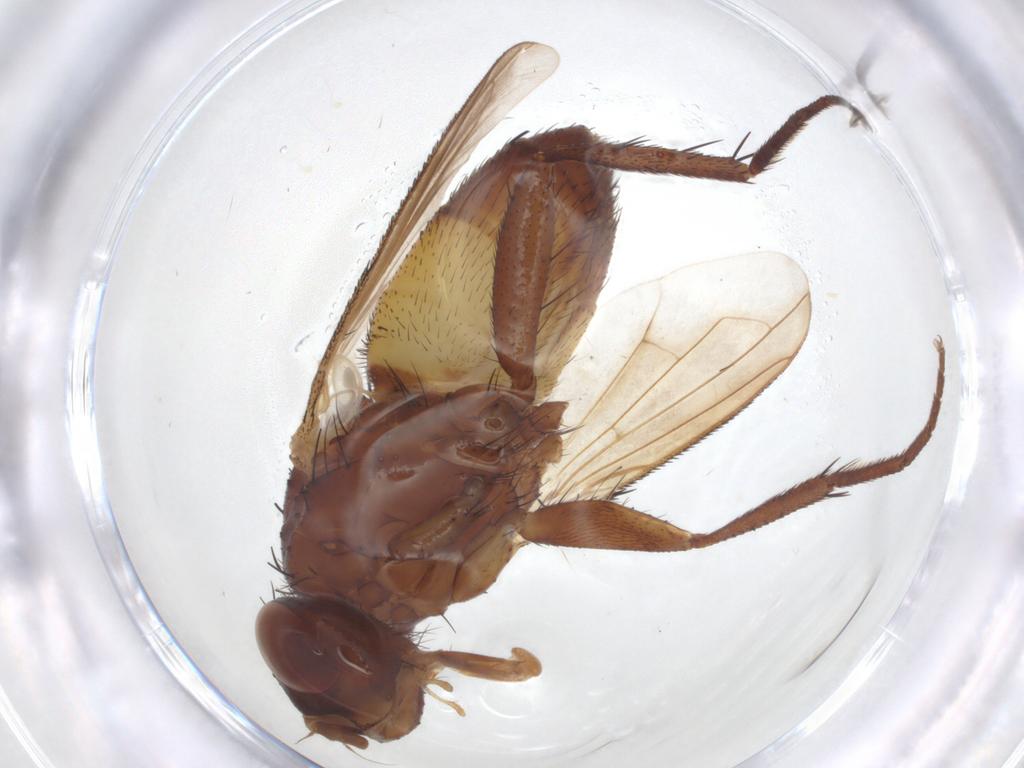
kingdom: Animalia
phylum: Arthropoda
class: Insecta
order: Diptera
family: Calliphoridae
